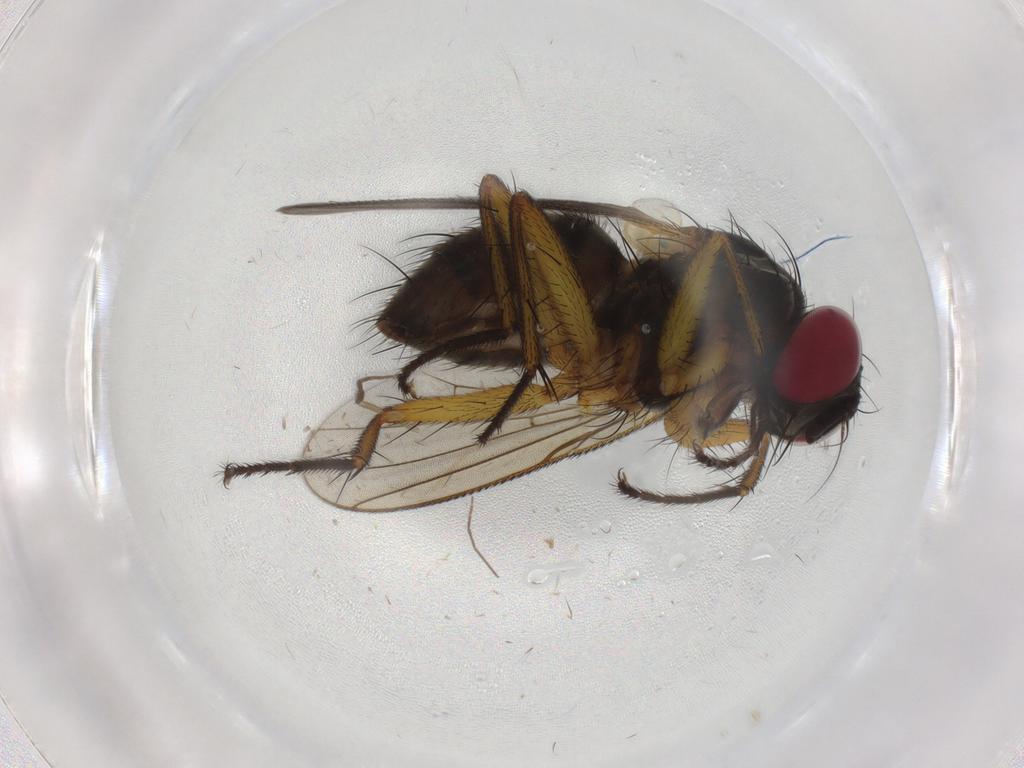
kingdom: Animalia
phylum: Arthropoda
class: Insecta
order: Diptera
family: Muscidae
